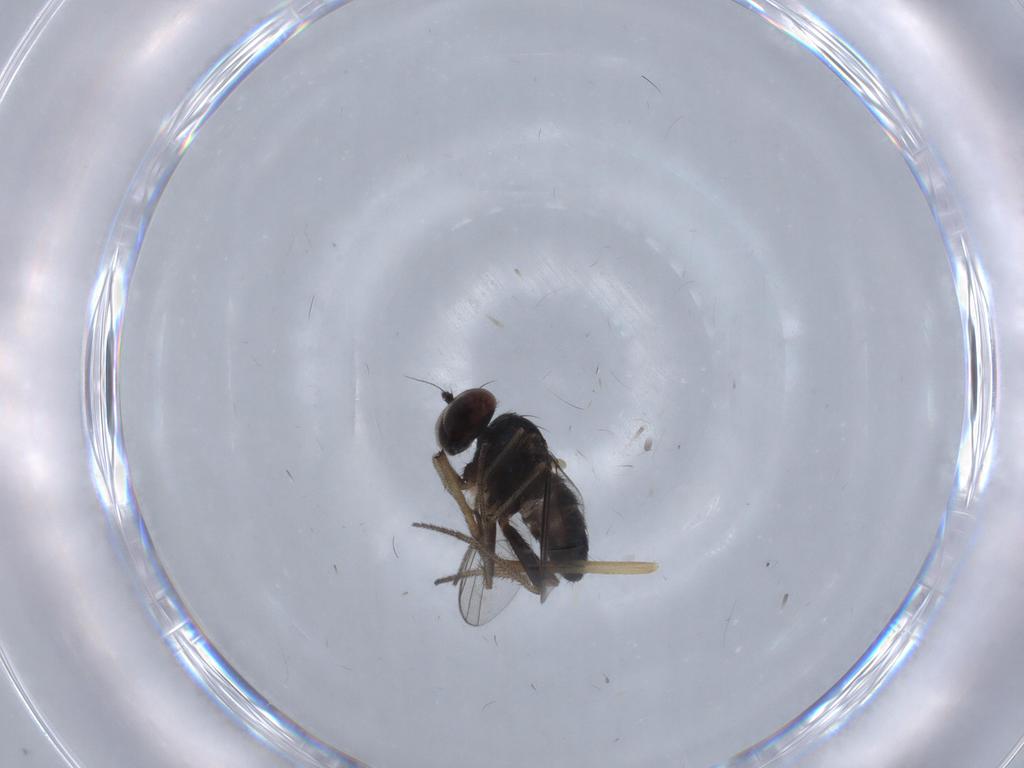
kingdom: Animalia
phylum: Arthropoda
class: Insecta
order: Diptera
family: Chironomidae
